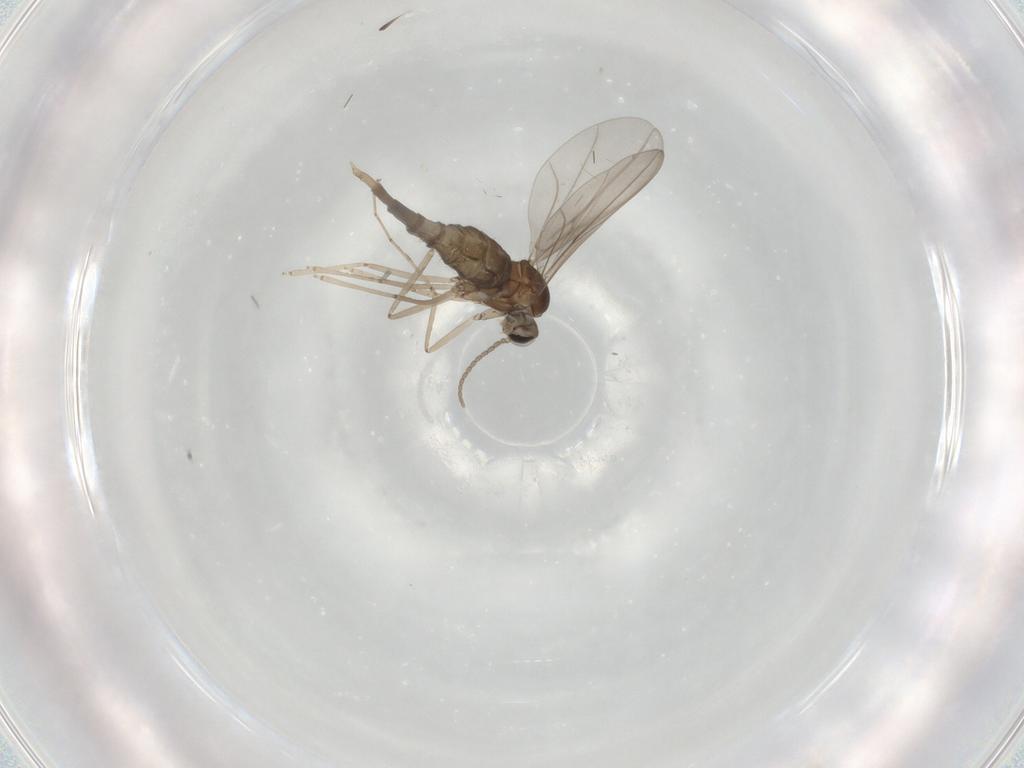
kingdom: Animalia
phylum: Arthropoda
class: Insecta
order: Diptera
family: Cecidomyiidae
